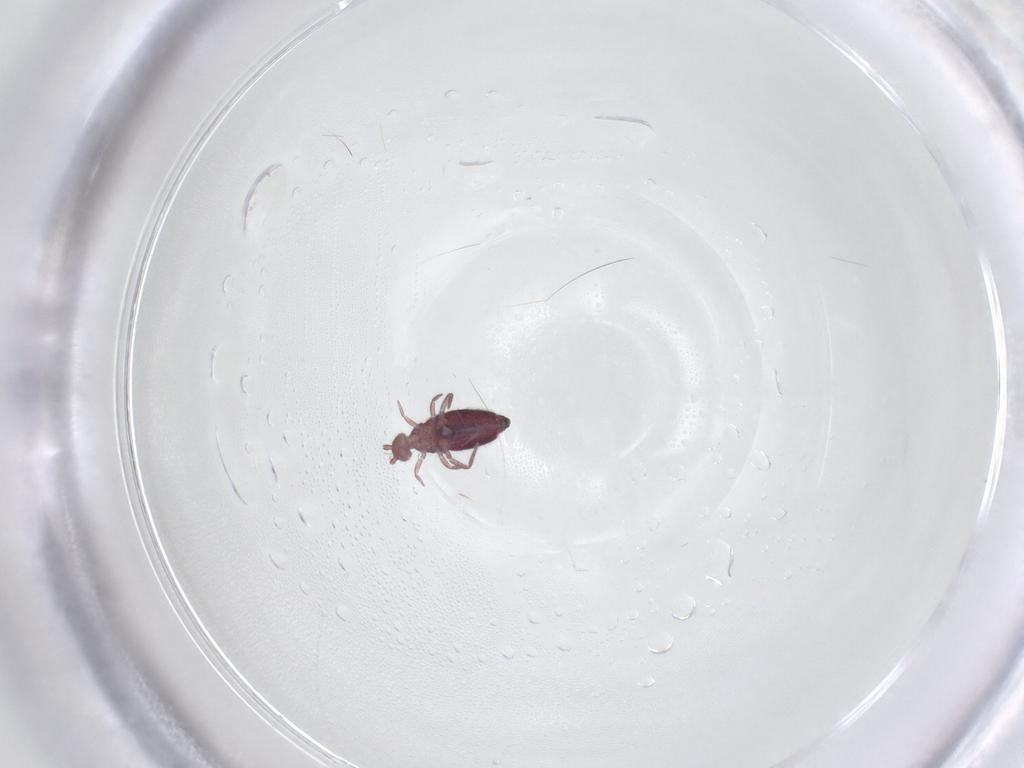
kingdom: Animalia
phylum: Arthropoda
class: Collembola
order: Entomobryomorpha
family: Entomobryidae
